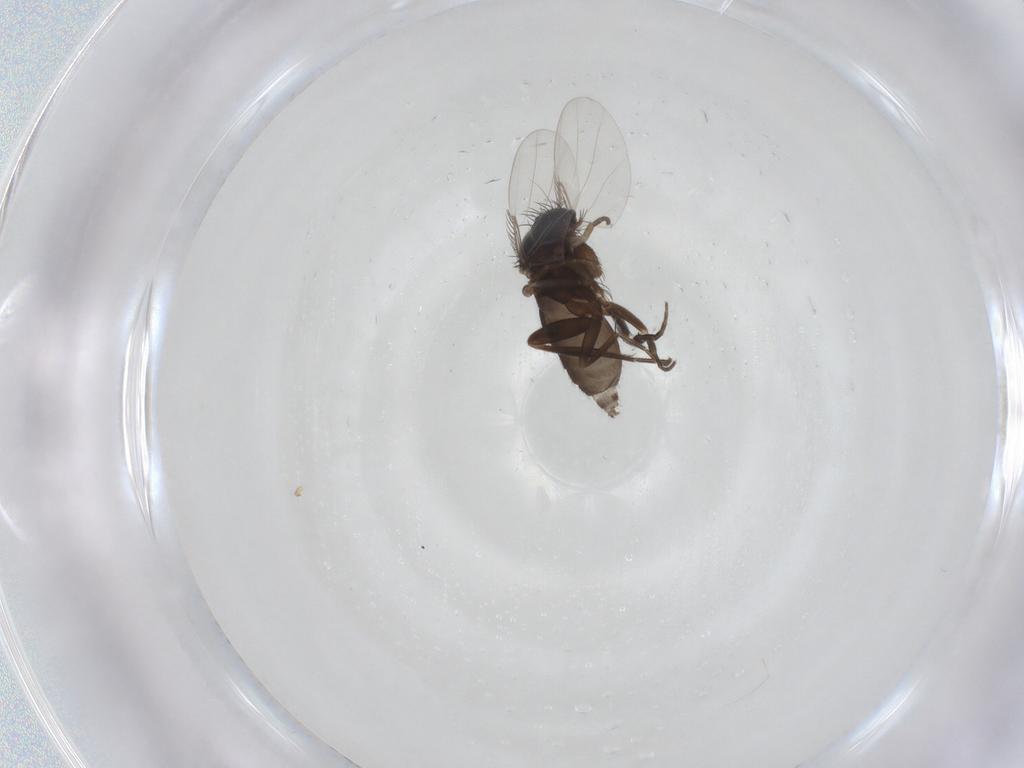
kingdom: Animalia
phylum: Arthropoda
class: Insecta
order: Diptera
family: Phoridae
